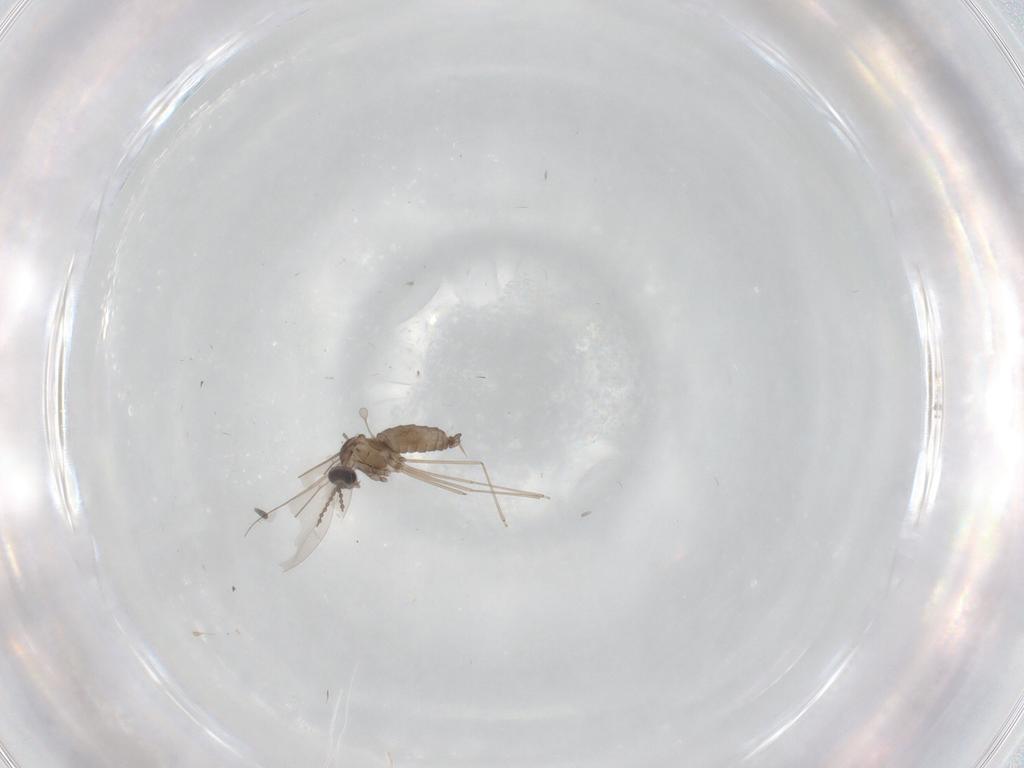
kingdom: Animalia
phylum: Arthropoda
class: Insecta
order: Diptera
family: Cecidomyiidae
